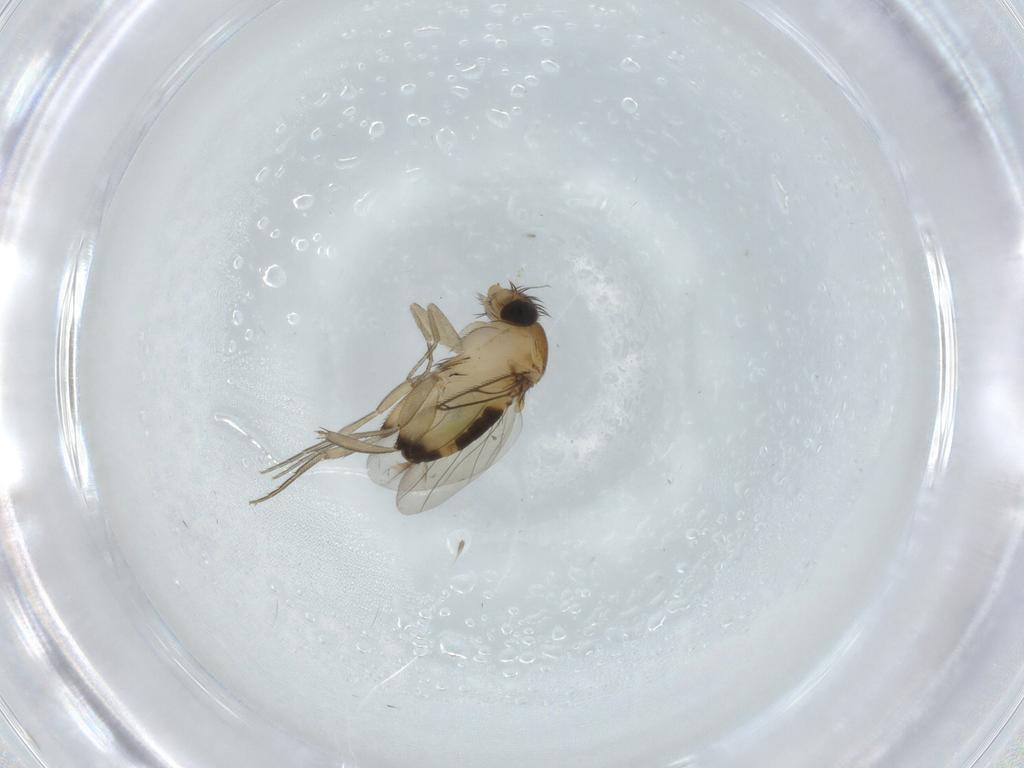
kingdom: Animalia
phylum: Arthropoda
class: Insecta
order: Diptera
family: Phoridae
